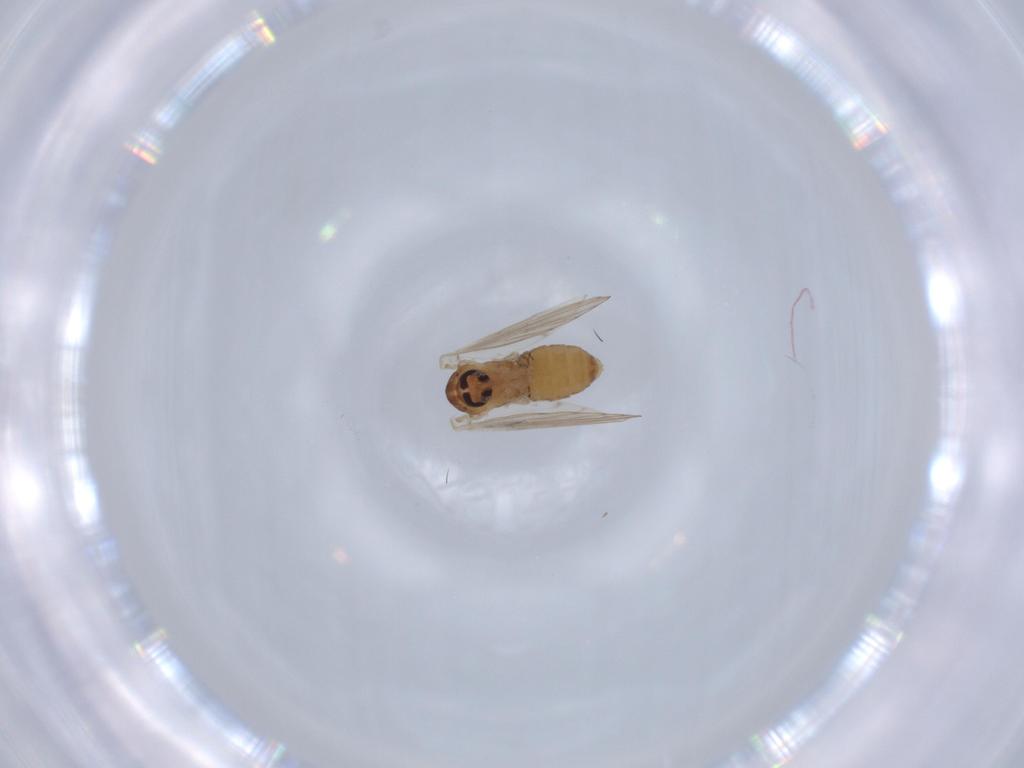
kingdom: Animalia
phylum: Arthropoda
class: Insecta
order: Diptera
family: Psychodidae
